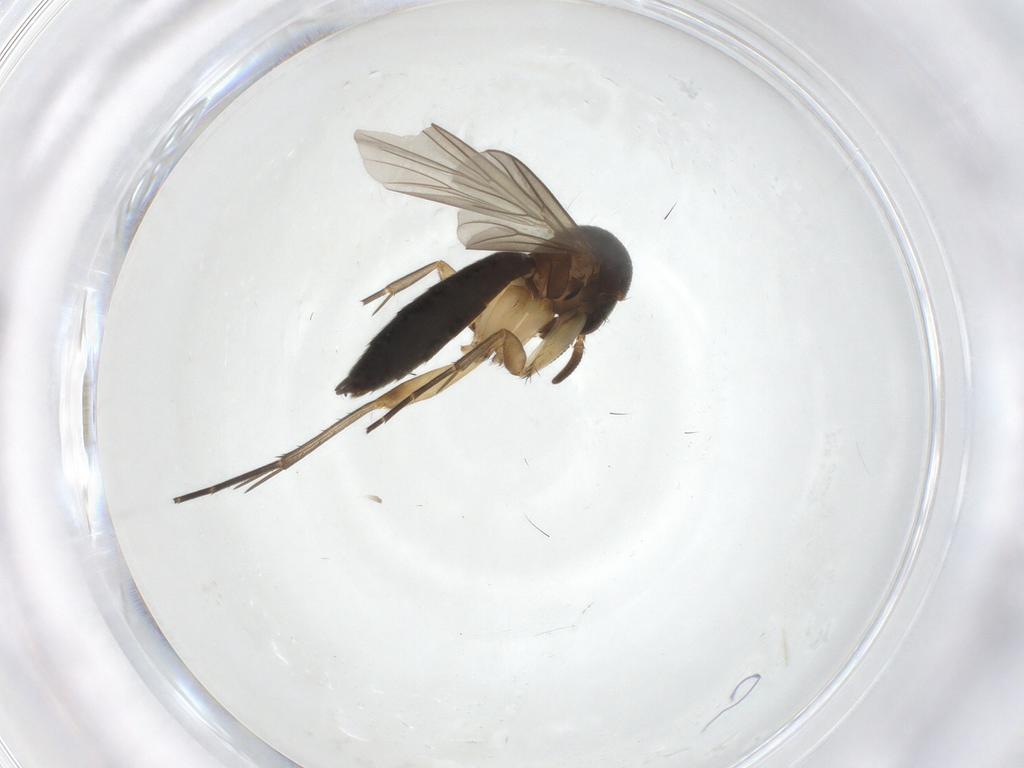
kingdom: Animalia
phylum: Arthropoda
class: Insecta
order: Diptera
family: Mycetophilidae
